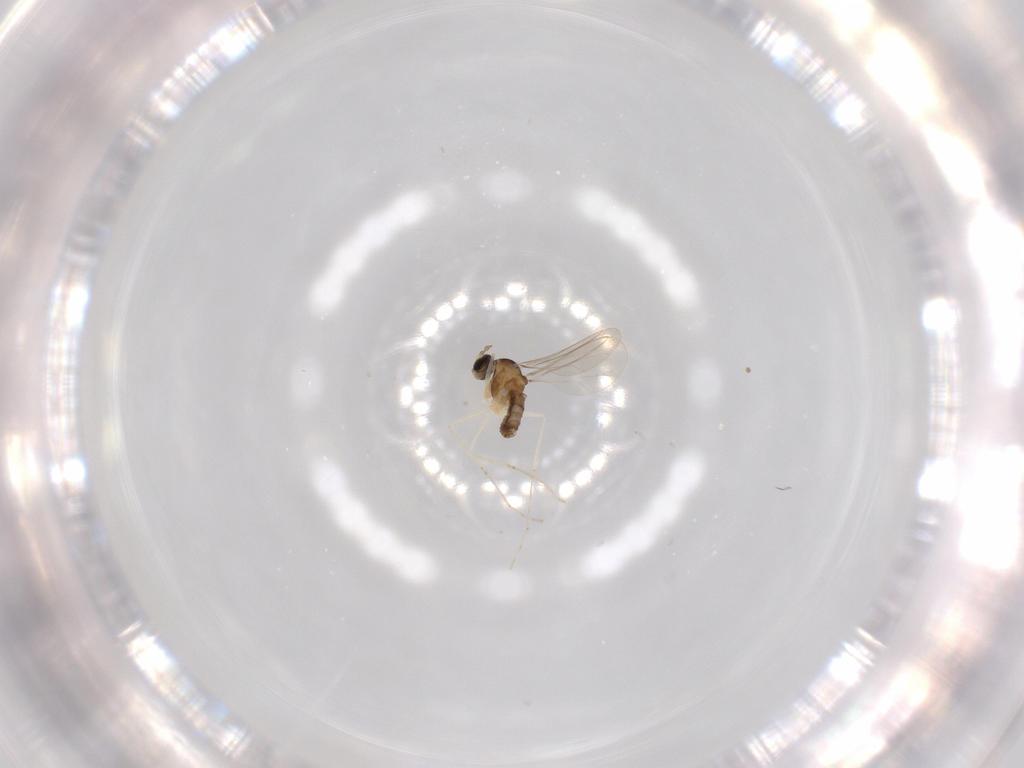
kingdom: Animalia
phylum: Arthropoda
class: Insecta
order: Diptera
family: Cecidomyiidae
